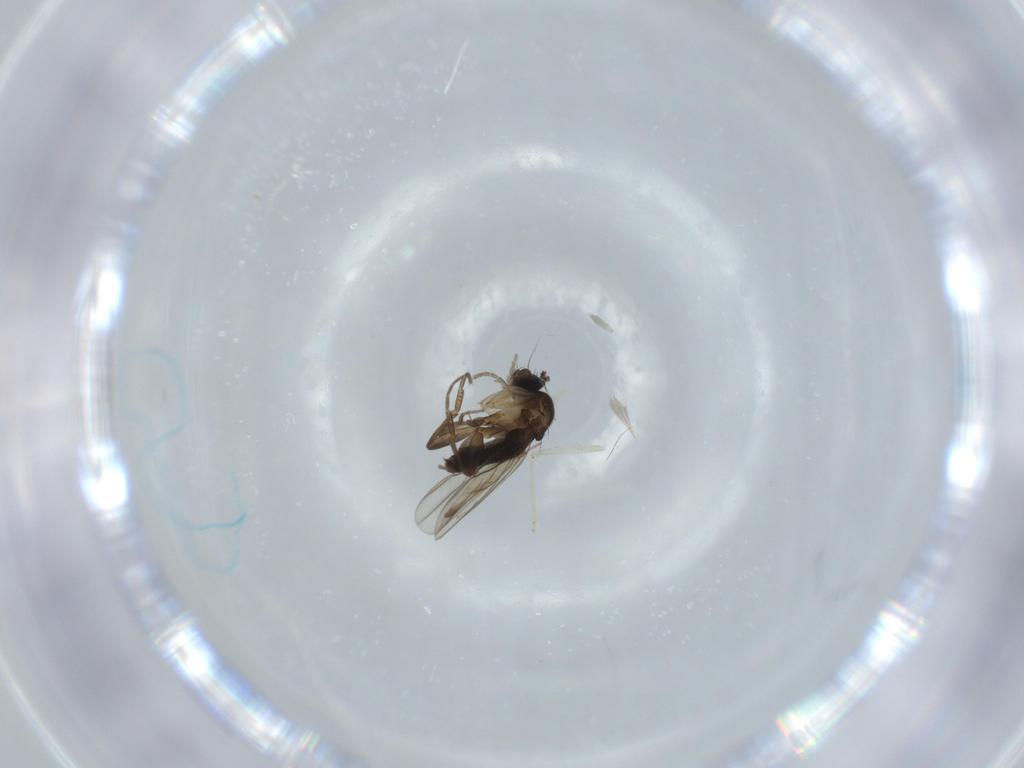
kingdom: Animalia
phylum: Arthropoda
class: Insecta
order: Diptera
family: Phoridae
